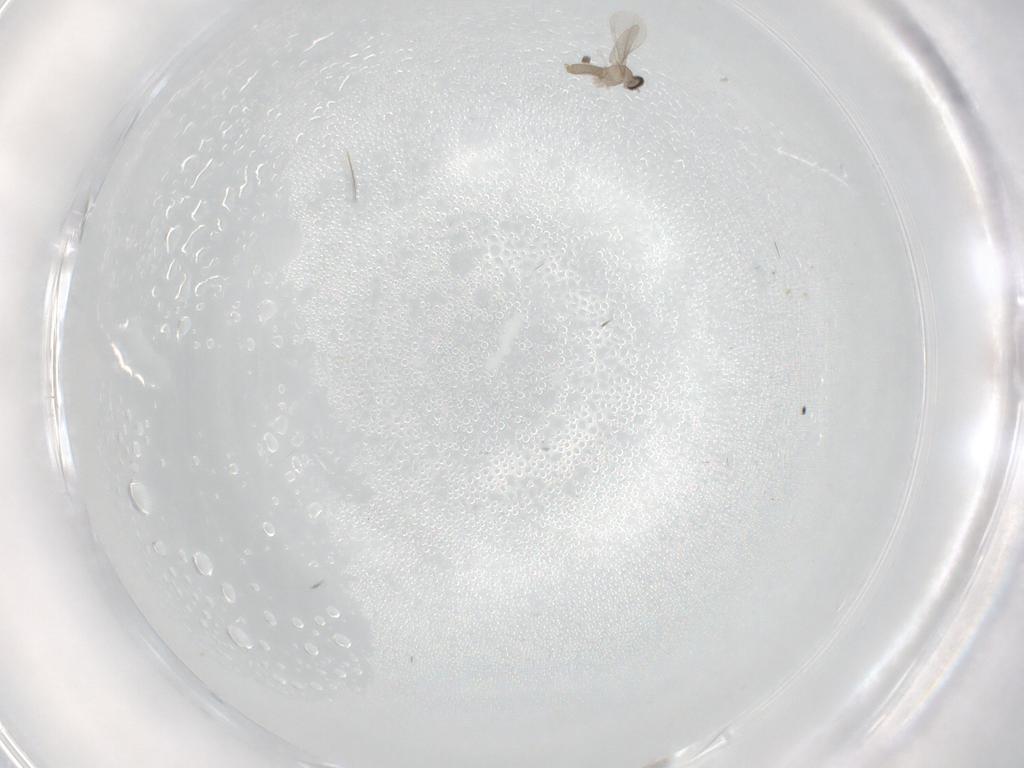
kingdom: Animalia
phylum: Arthropoda
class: Insecta
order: Diptera
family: Cecidomyiidae
